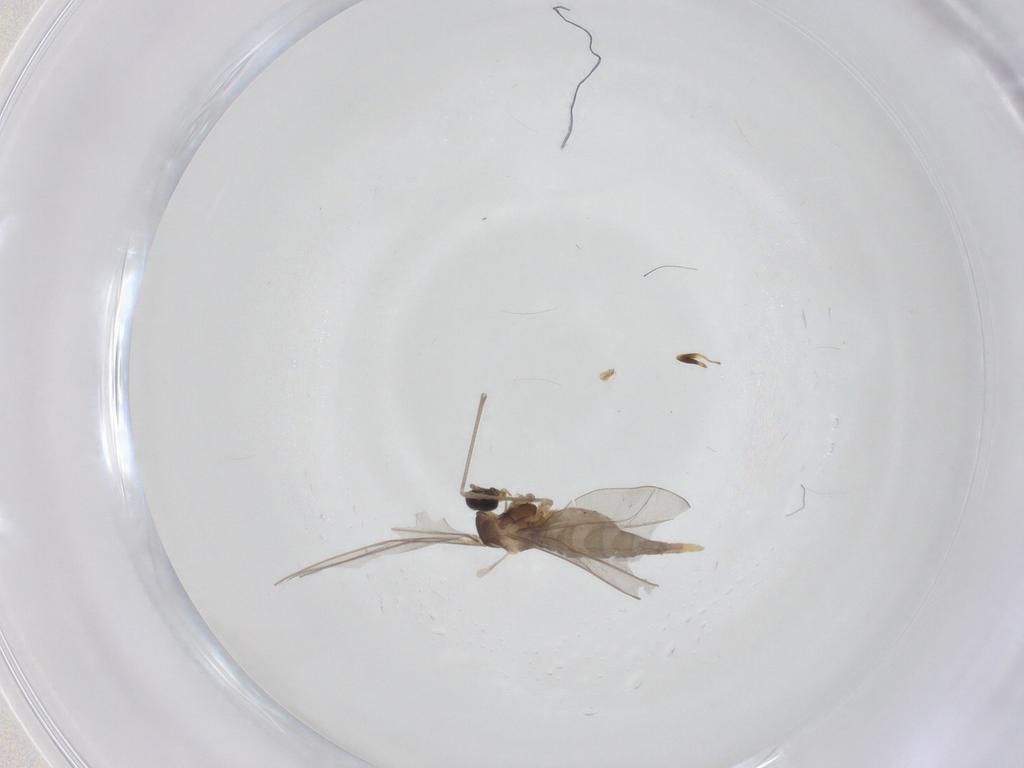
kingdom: Animalia
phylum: Arthropoda
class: Insecta
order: Diptera
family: Cecidomyiidae
